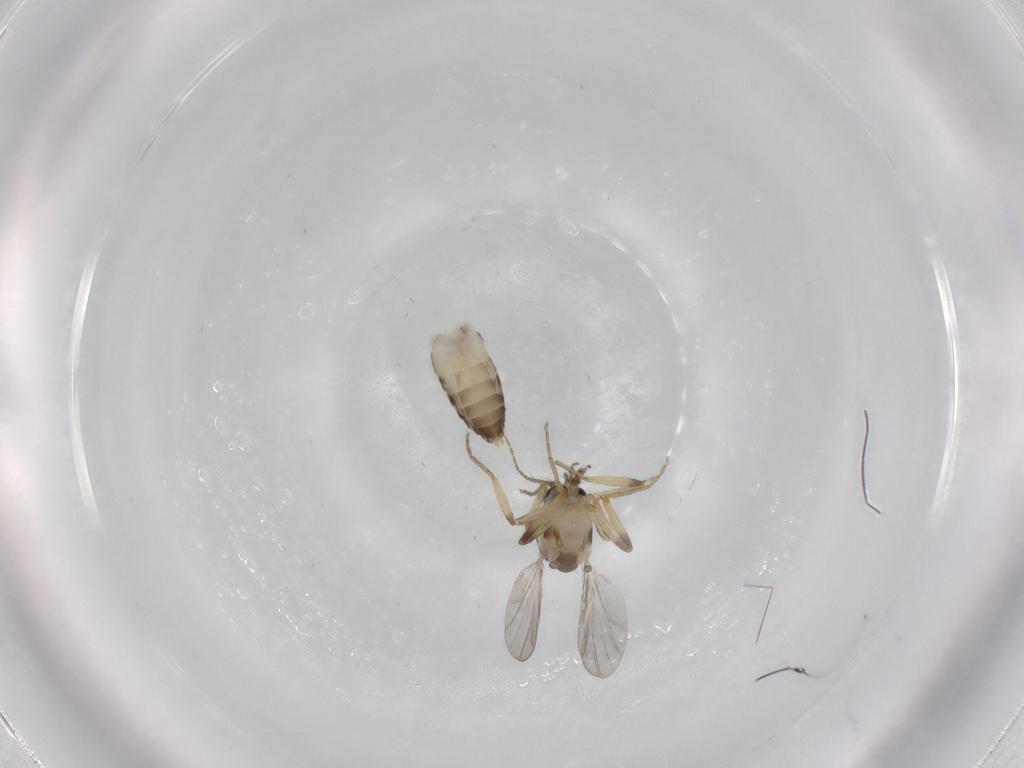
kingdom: Animalia
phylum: Arthropoda
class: Insecta
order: Diptera
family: Ceratopogonidae
